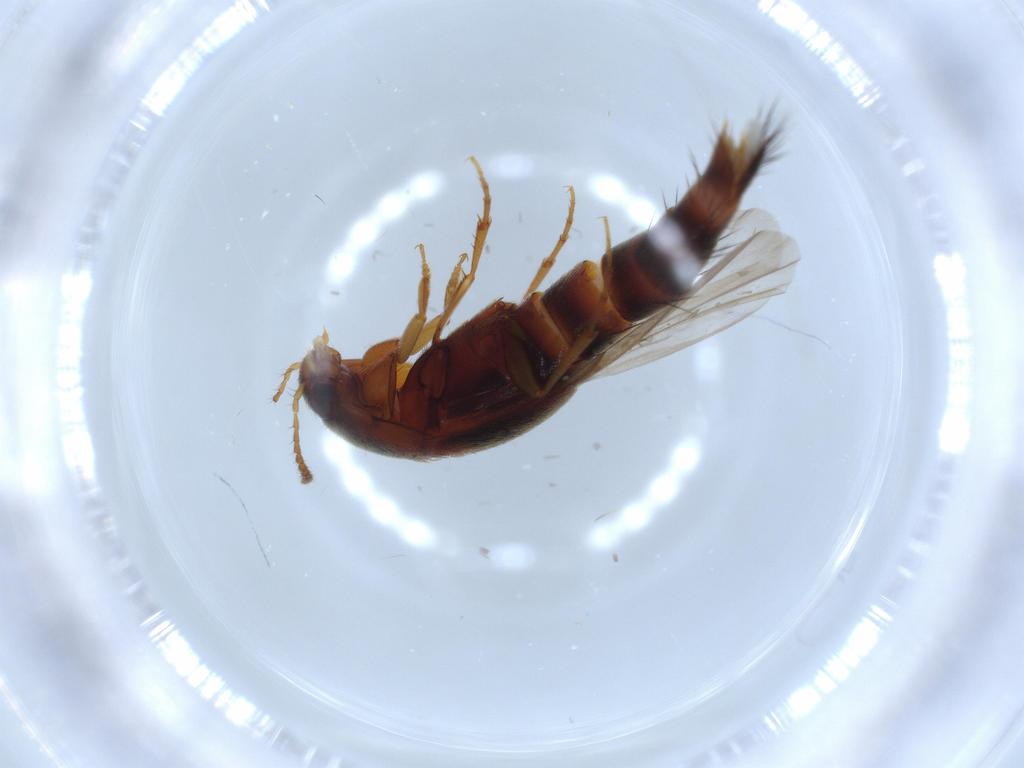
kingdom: Animalia
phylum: Arthropoda
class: Insecta
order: Coleoptera
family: Staphylinidae
